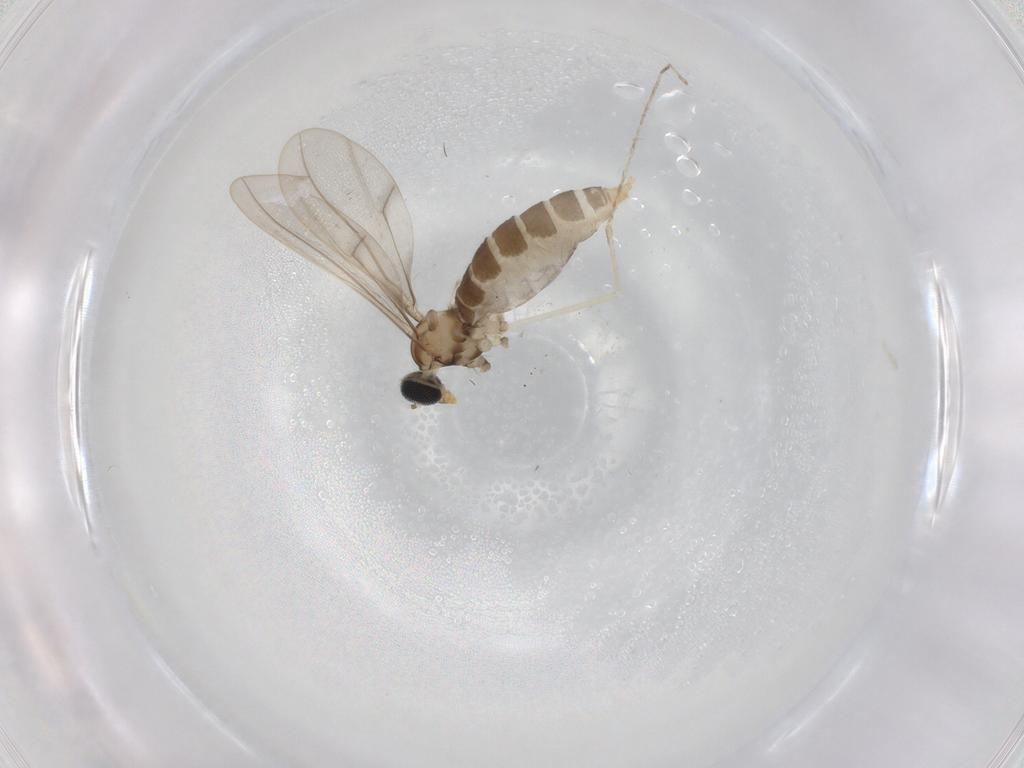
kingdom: Animalia
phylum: Arthropoda
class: Insecta
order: Diptera
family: Cecidomyiidae
